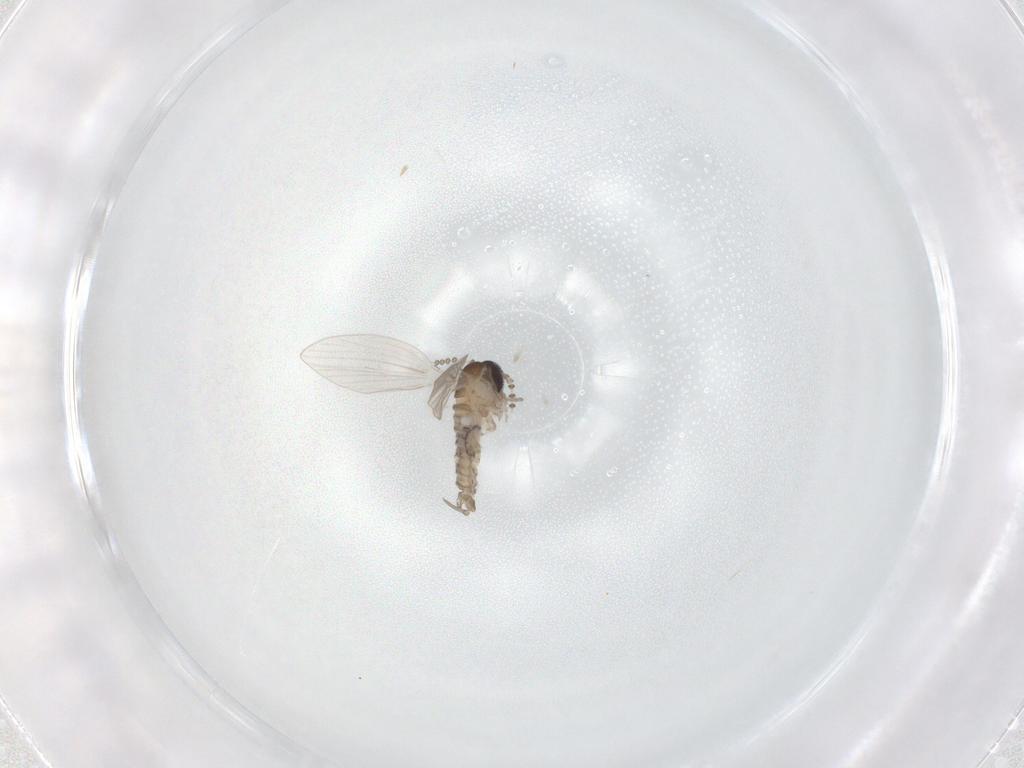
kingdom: Animalia
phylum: Arthropoda
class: Insecta
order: Diptera
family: Psychodidae
